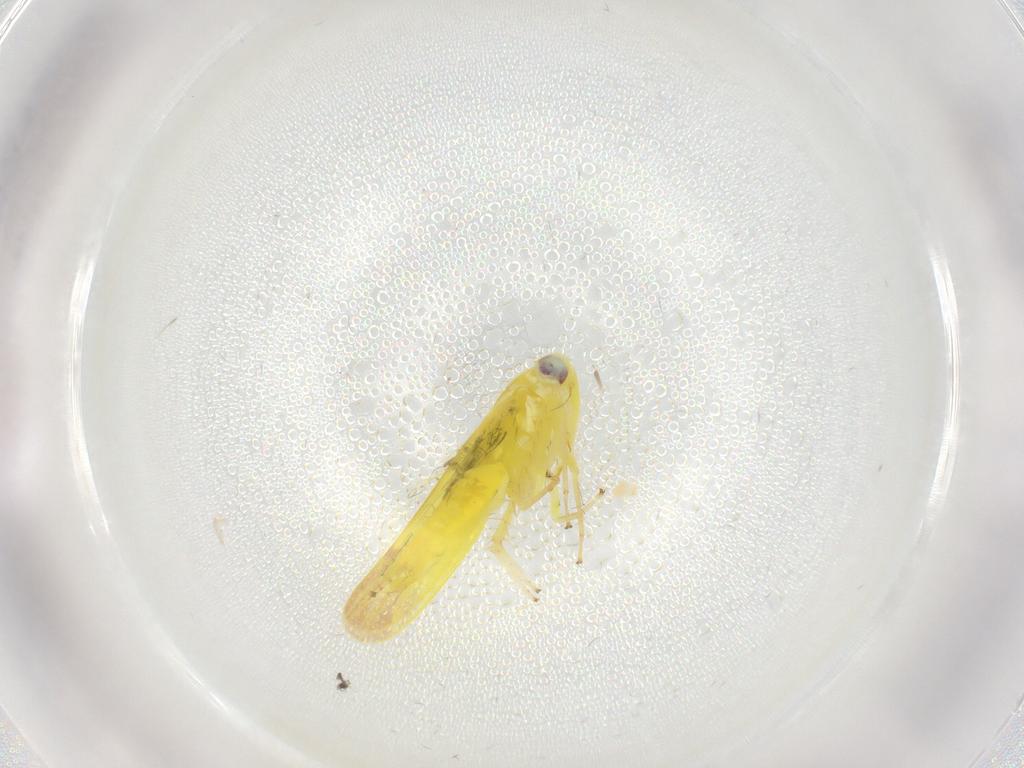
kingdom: Animalia
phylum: Arthropoda
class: Insecta
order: Hemiptera
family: Cicadellidae
